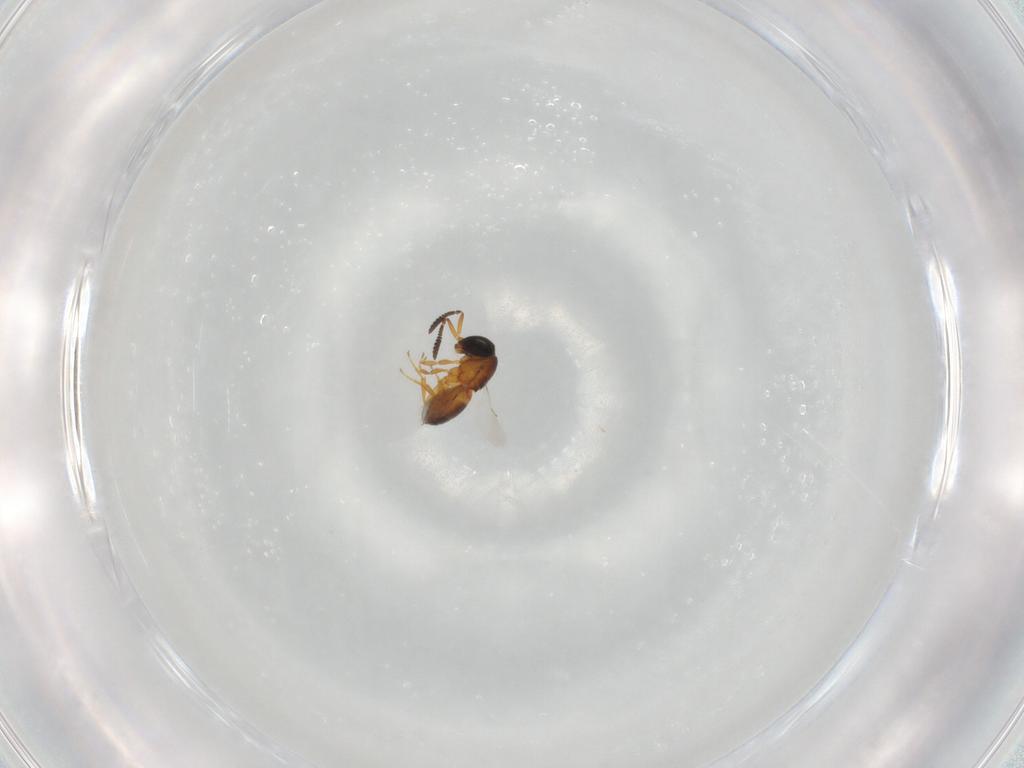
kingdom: Animalia
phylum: Arthropoda
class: Insecta
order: Hymenoptera
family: Scelionidae
